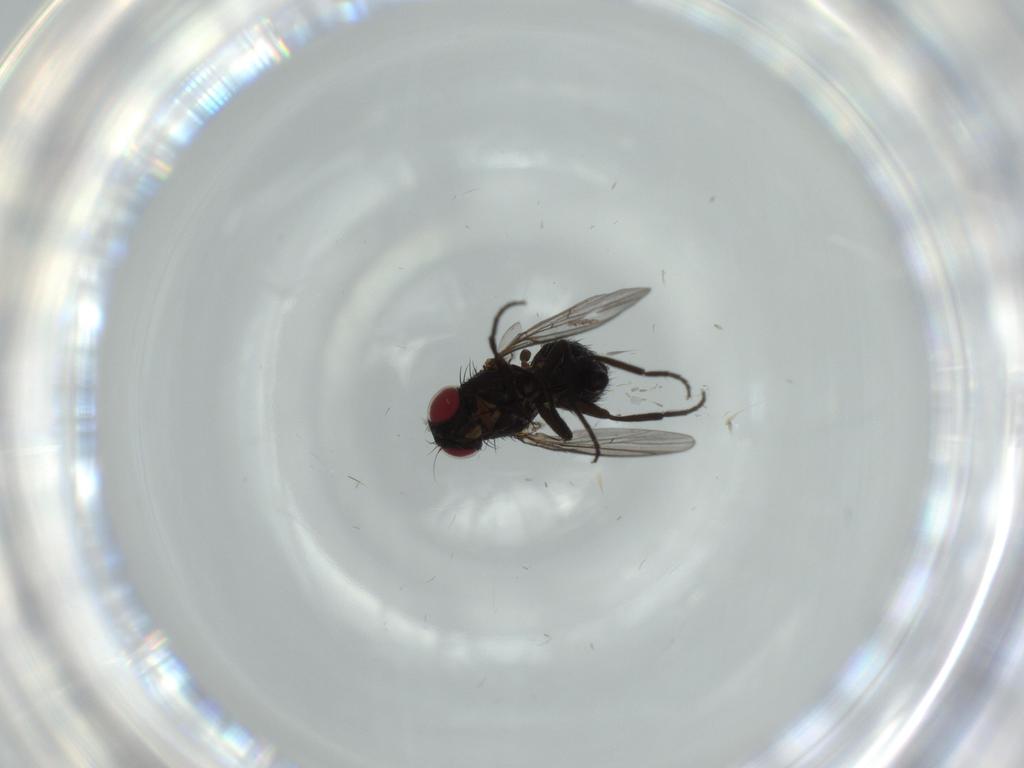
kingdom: Animalia
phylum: Arthropoda
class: Insecta
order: Diptera
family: Agromyzidae
